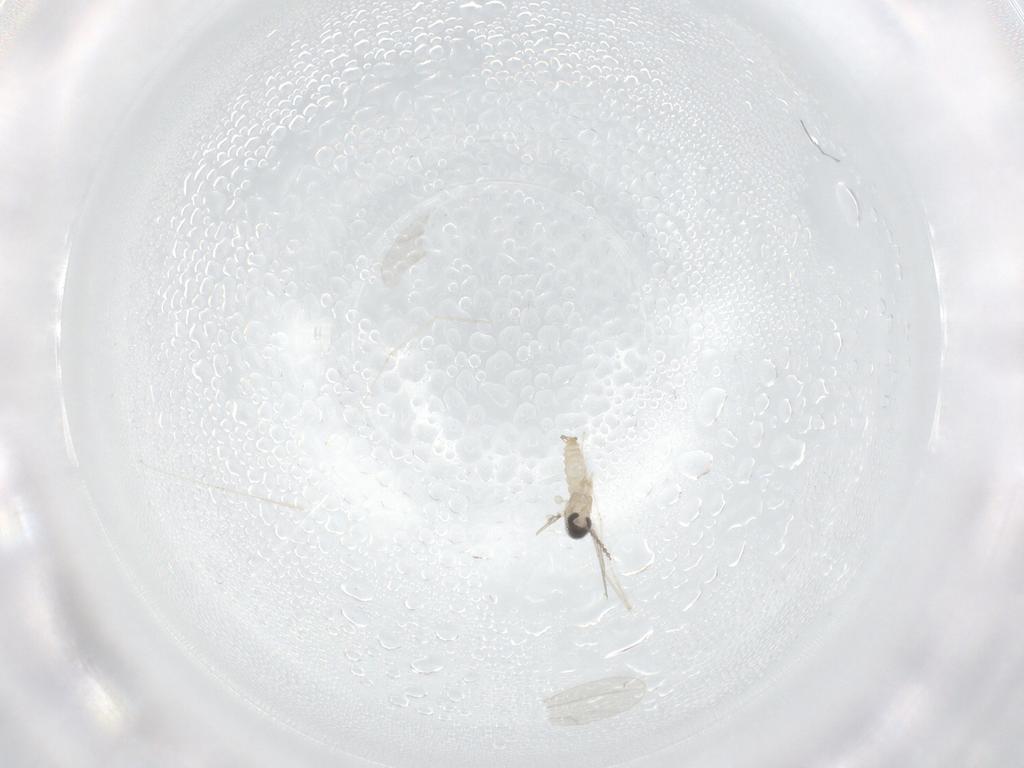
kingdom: Animalia
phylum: Arthropoda
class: Insecta
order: Diptera
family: Cecidomyiidae
